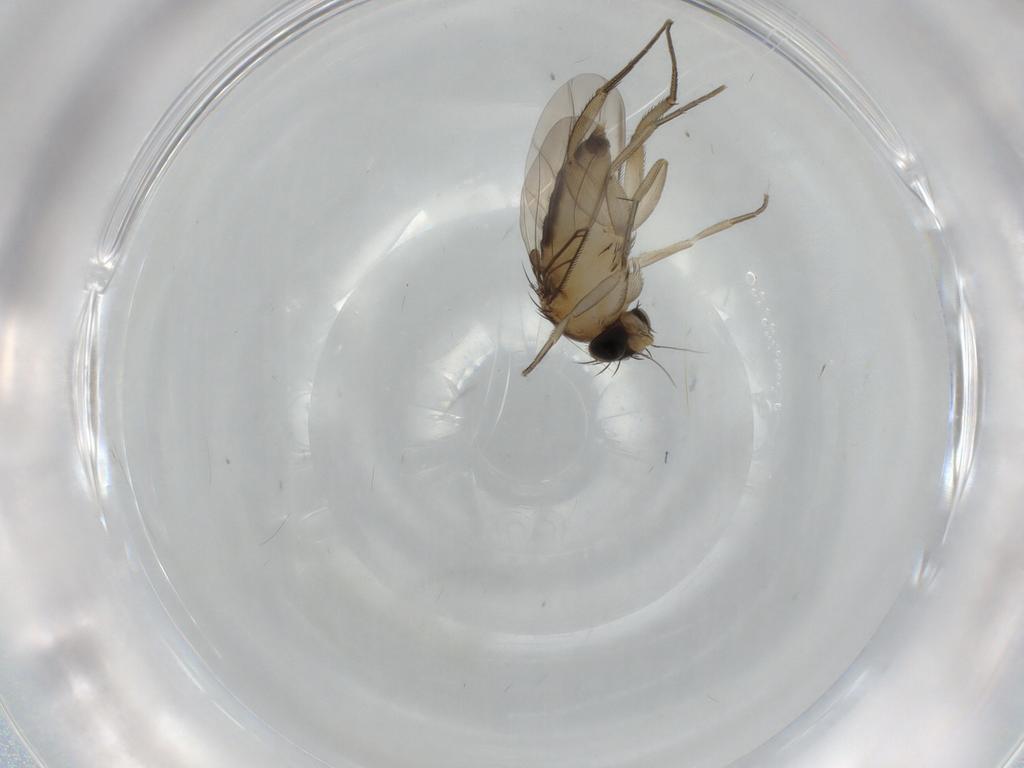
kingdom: Animalia
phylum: Arthropoda
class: Insecta
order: Diptera
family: Phoridae
